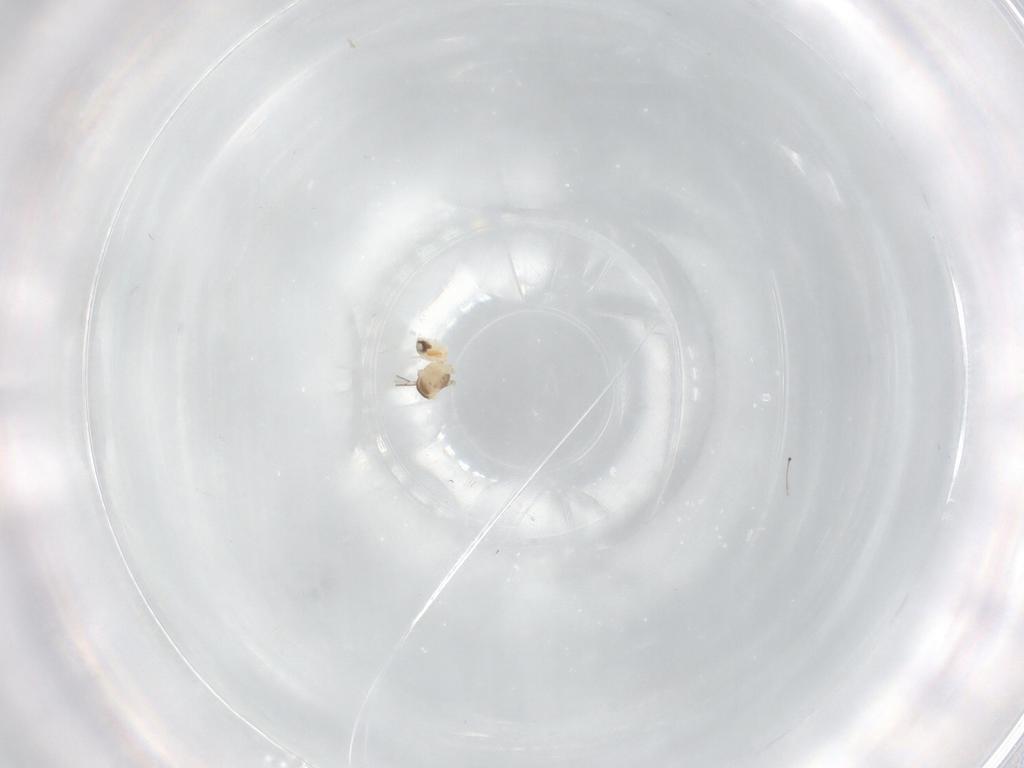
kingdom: Animalia
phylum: Arthropoda
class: Insecta
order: Diptera
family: Cecidomyiidae
